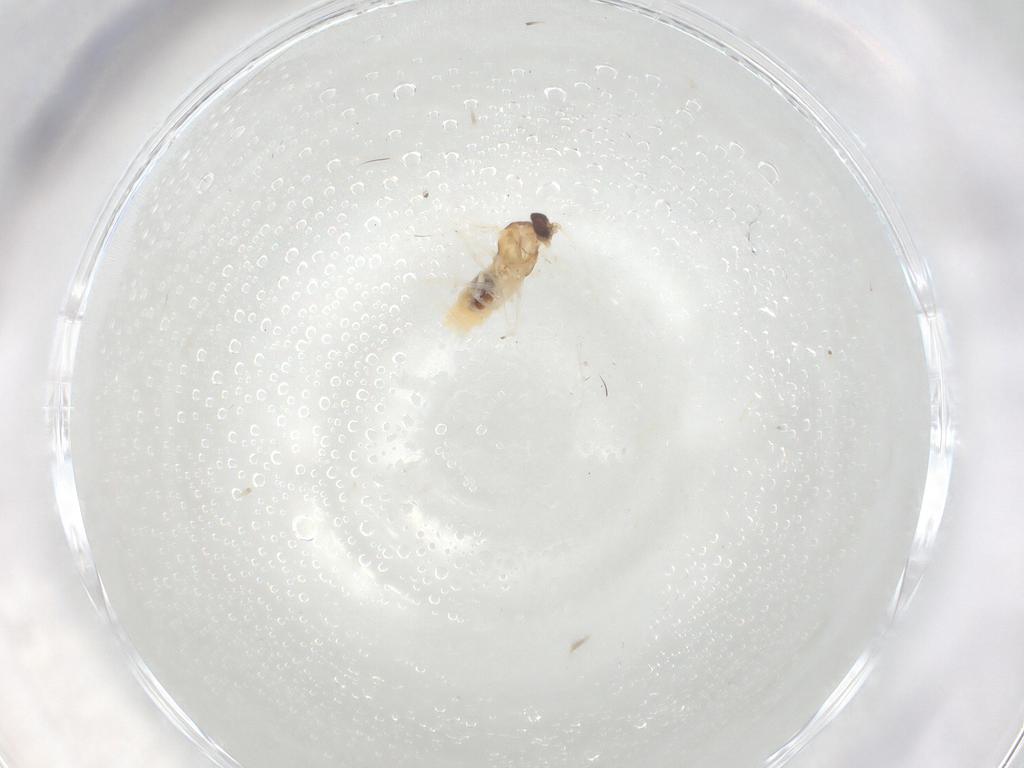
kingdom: Animalia
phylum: Arthropoda
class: Insecta
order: Diptera
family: Cecidomyiidae
